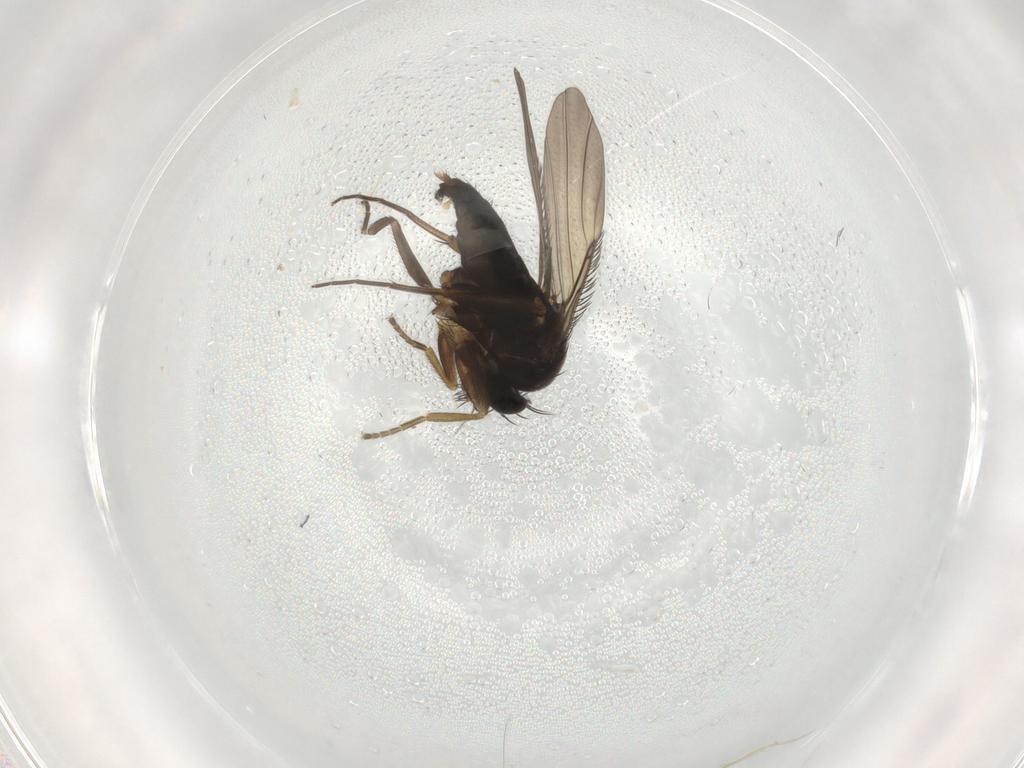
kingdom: Animalia
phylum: Arthropoda
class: Insecta
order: Diptera
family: Phoridae
